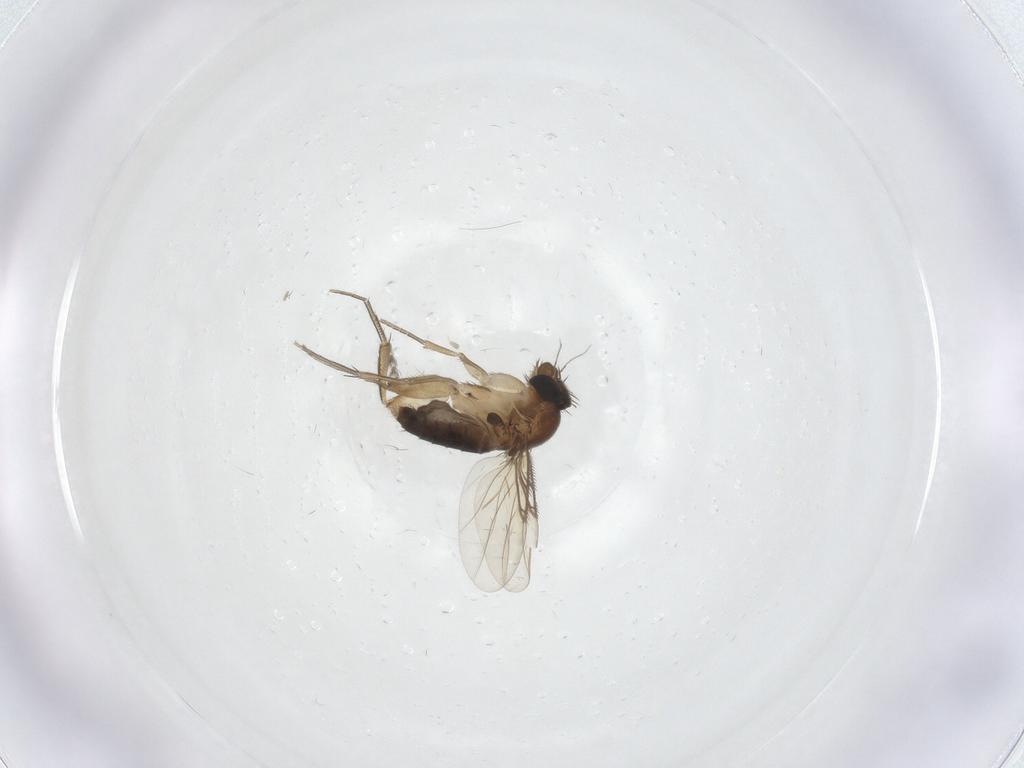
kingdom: Animalia
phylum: Arthropoda
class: Insecta
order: Diptera
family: Phoridae
